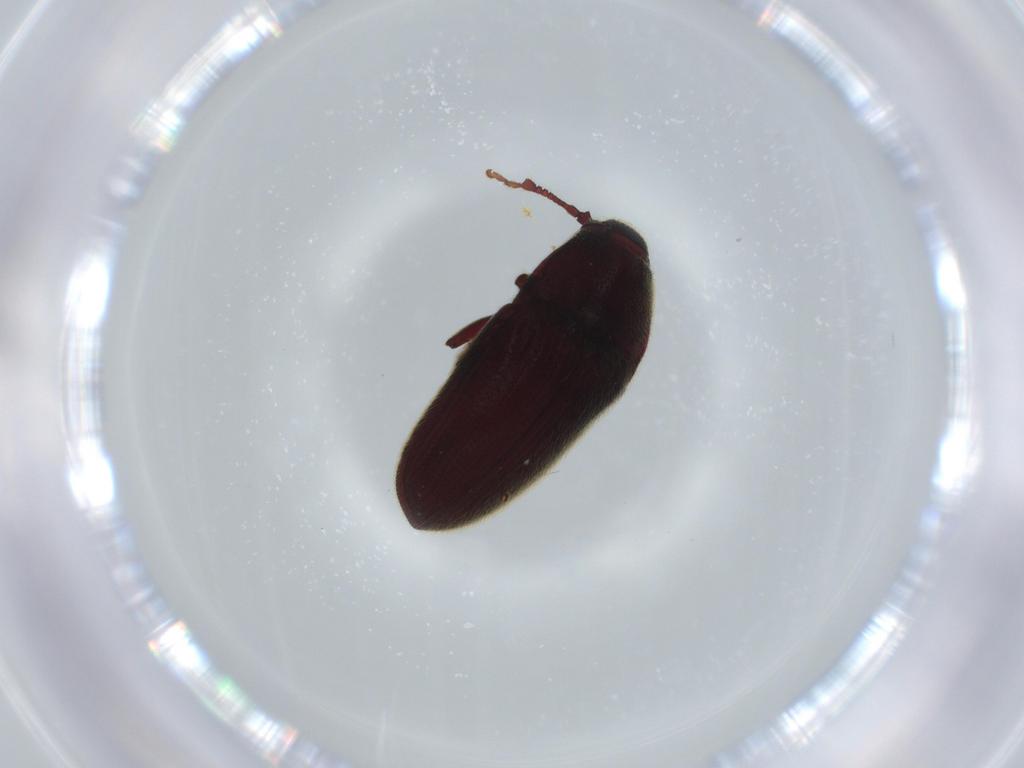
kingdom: Animalia
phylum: Arthropoda
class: Insecta
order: Coleoptera
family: Throscidae
